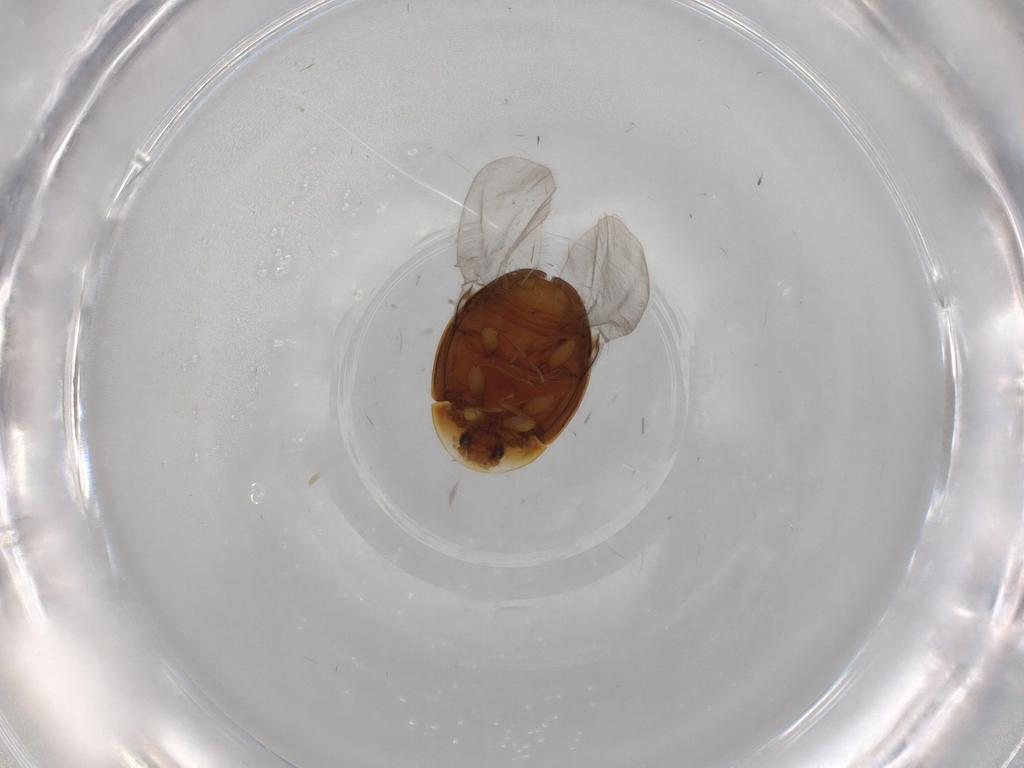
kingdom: Animalia
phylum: Arthropoda
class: Insecta
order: Coleoptera
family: Corylophidae
